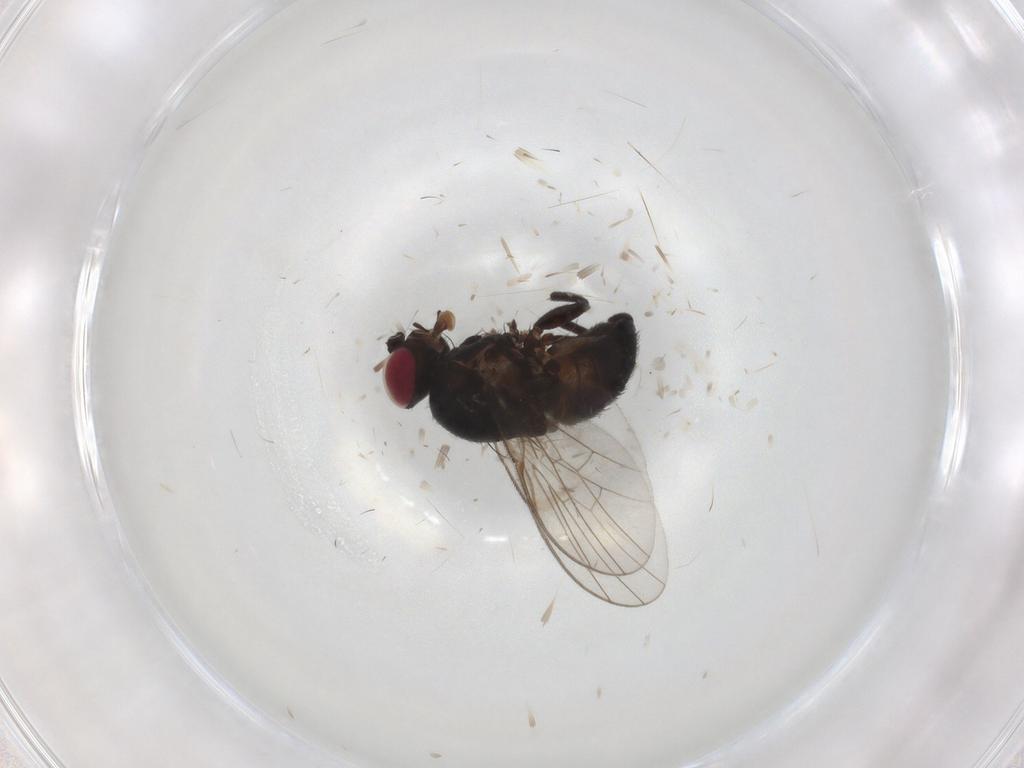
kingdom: Animalia
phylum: Arthropoda
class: Insecta
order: Diptera
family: Agromyzidae
